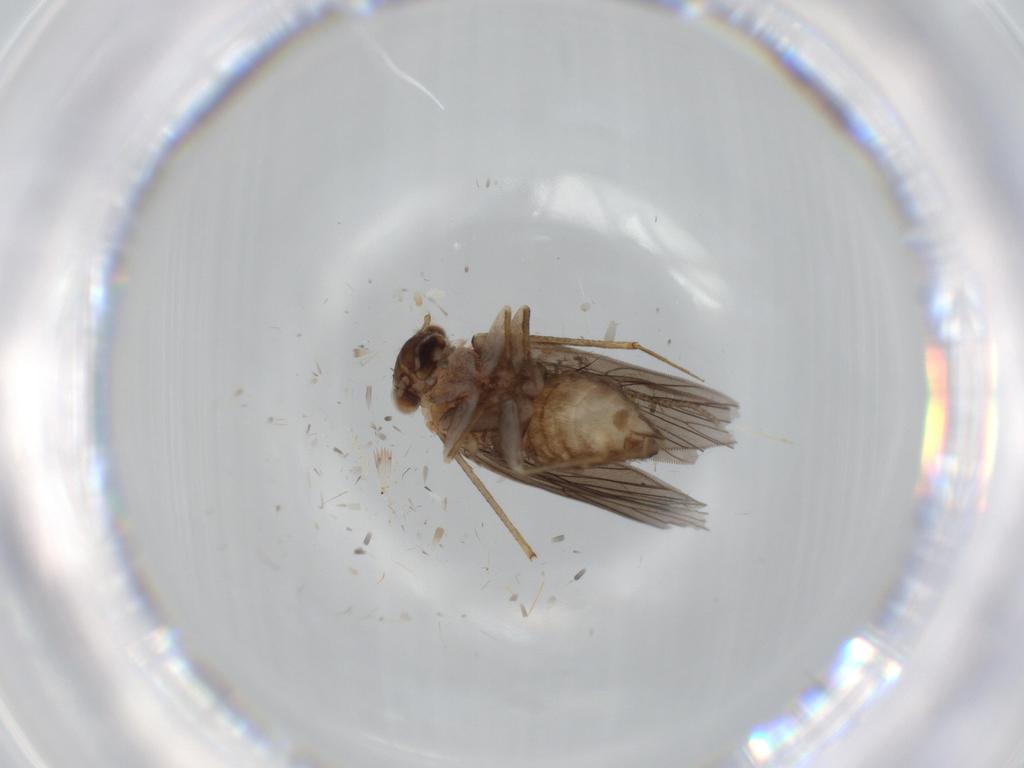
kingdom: Animalia
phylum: Arthropoda
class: Insecta
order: Psocodea
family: Lepidopsocidae
